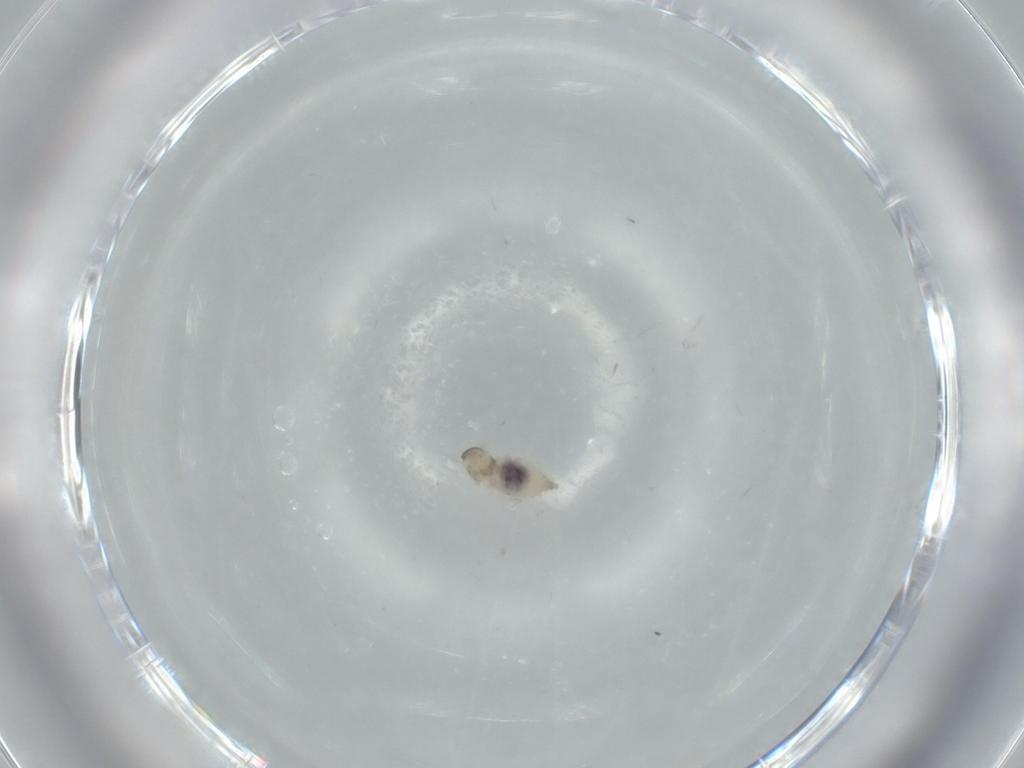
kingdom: Animalia
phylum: Arthropoda
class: Insecta
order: Diptera
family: Cecidomyiidae
